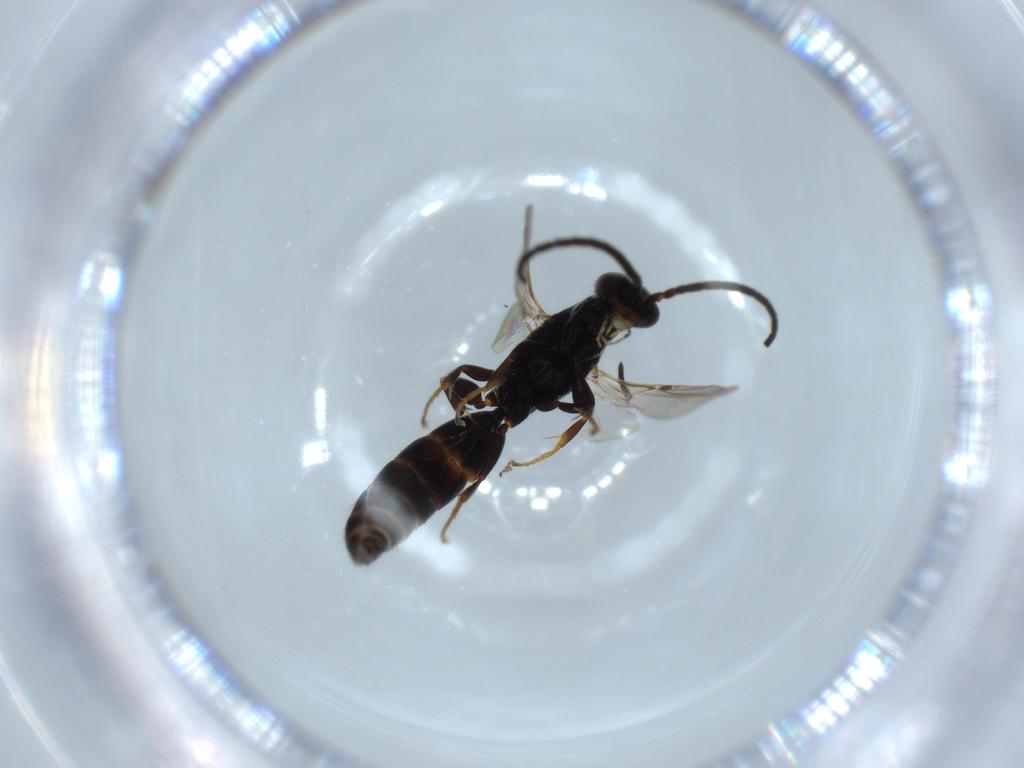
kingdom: Animalia
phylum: Arthropoda
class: Insecta
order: Hymenoptera
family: Bethylidae
